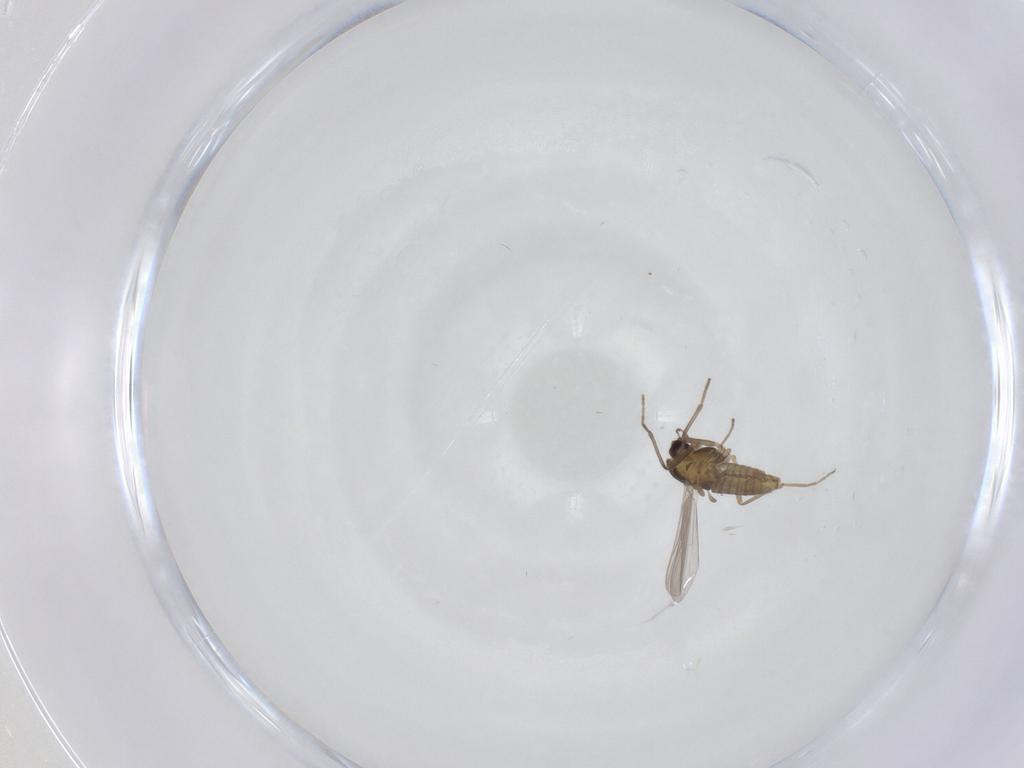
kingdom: Animalia
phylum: Arthropoda
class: Insecta
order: Diptera
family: Chironomidae
